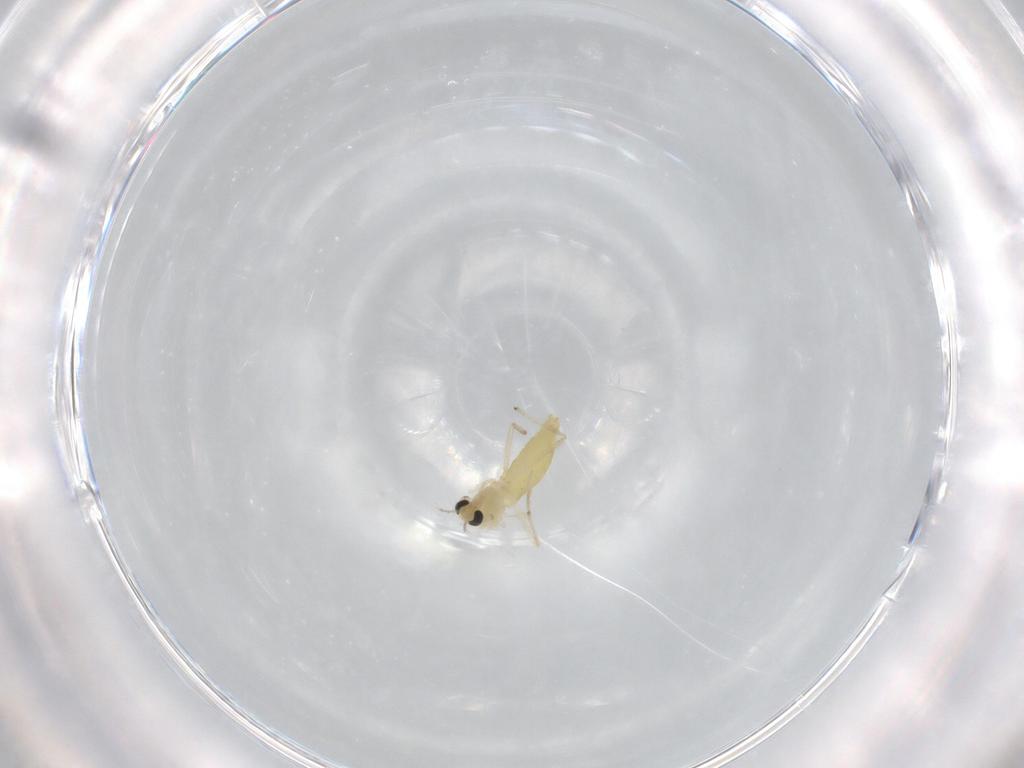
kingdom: Animalia
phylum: Arthropoda
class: Insecta
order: Diptera
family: Chironomidae
